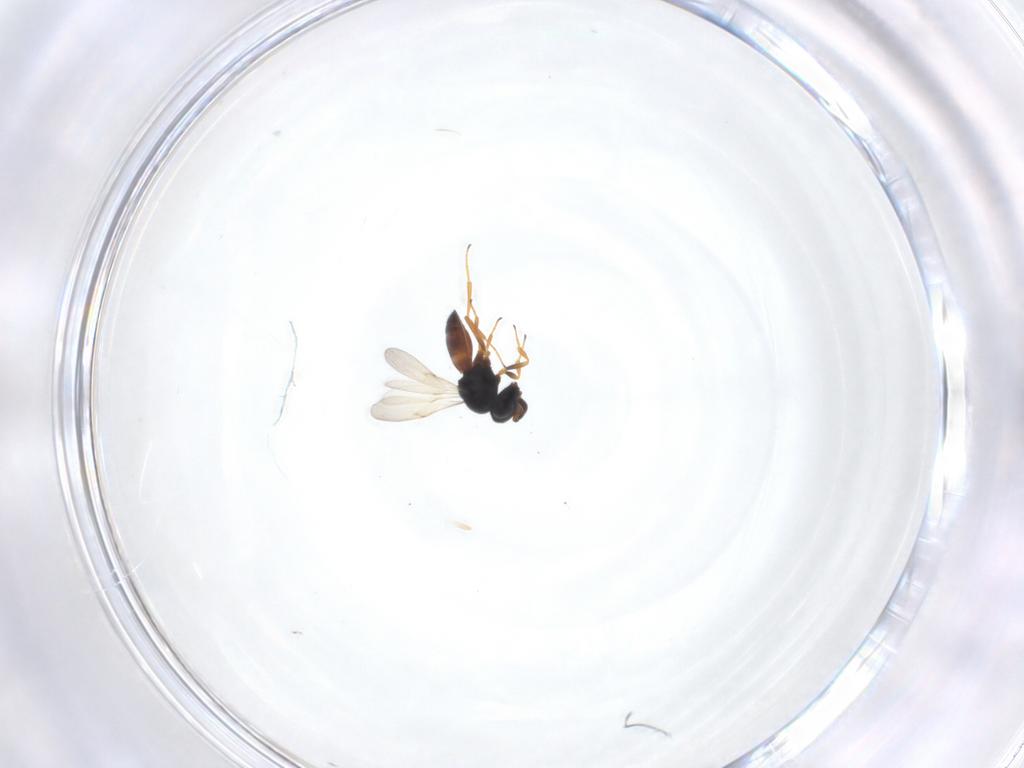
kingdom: Animalia
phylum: Arthropoda
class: Insecta
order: Hymenoptera
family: Scelionidae
